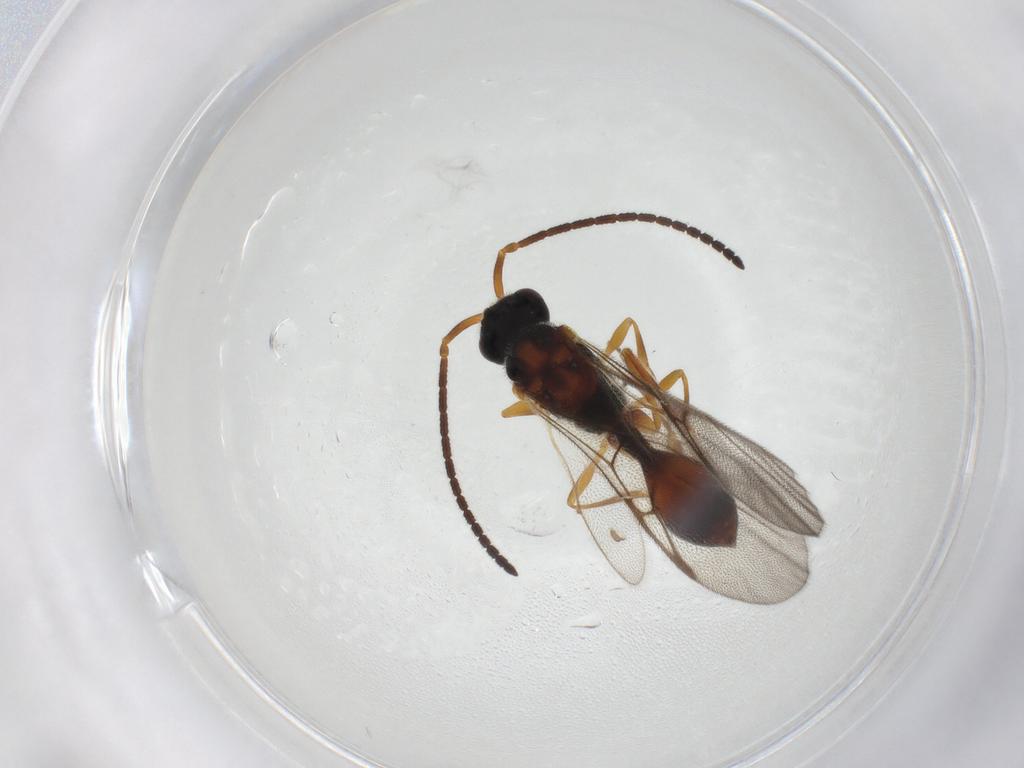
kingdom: Animalia
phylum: Arthropoda
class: Insecta
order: Hymenoptera
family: Diapriidae
